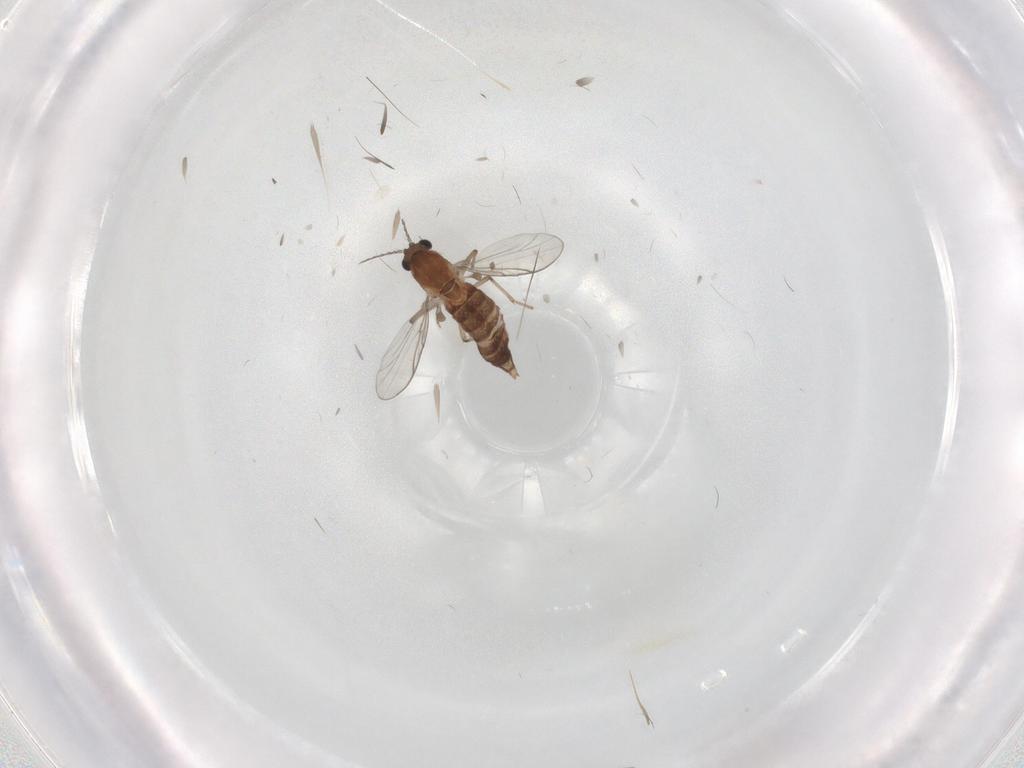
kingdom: Animalia
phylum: Arthropoda
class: Insecta
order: Diptera
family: Chironomidae
